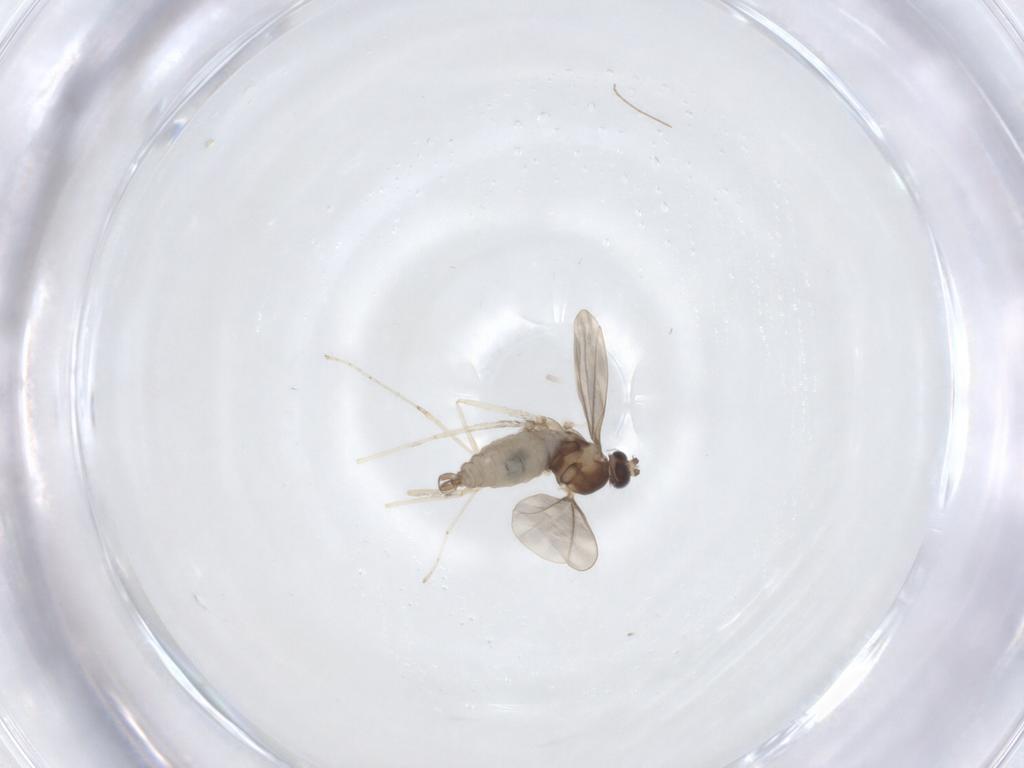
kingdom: Animalia
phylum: Arthropoda
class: Insecta
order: Diptera
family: Cecidomyiidae
